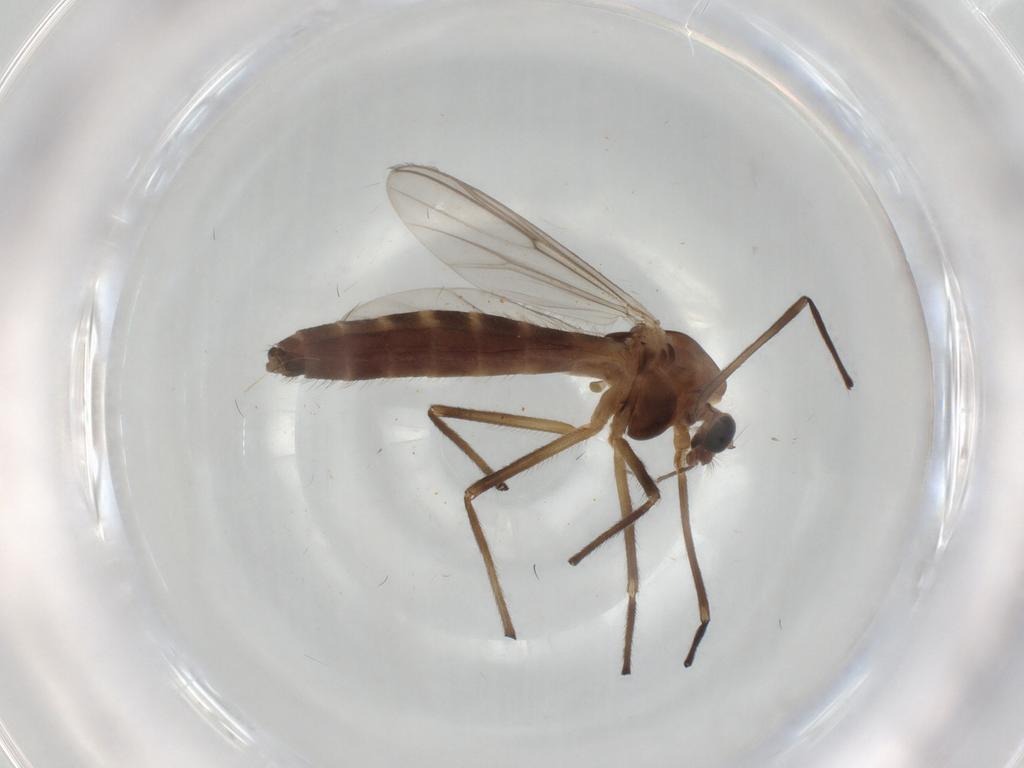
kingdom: Animalia
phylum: Arthropoda
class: Insecta
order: Diptera
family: Chironomidae
